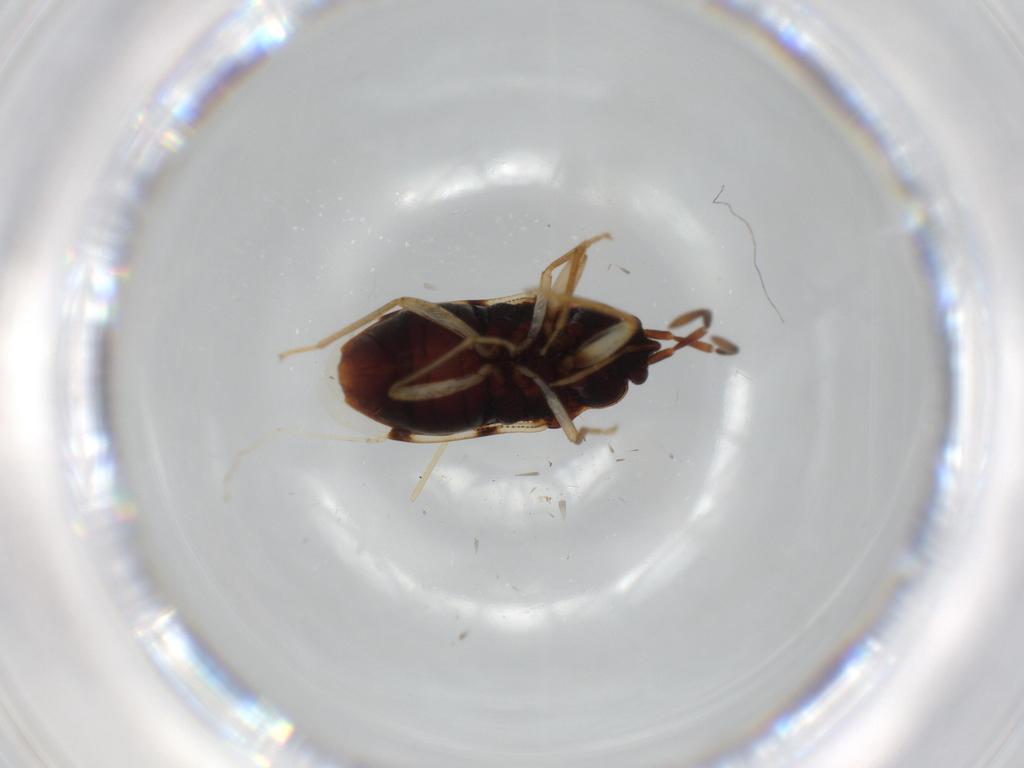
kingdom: Animalia
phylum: Arthropoda
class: Insecta
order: Hemiptera
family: Rhyparochromidae
